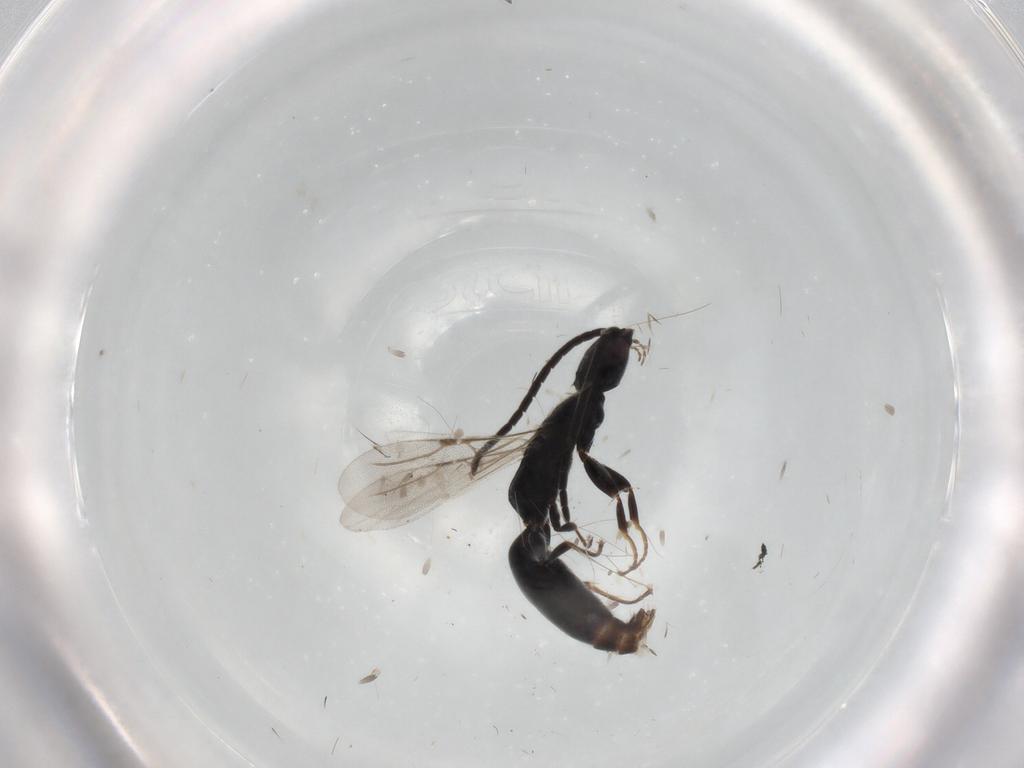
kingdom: Animalia
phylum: Arthropoda
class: Insecta
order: Hymenoptera
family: Bethylidae
